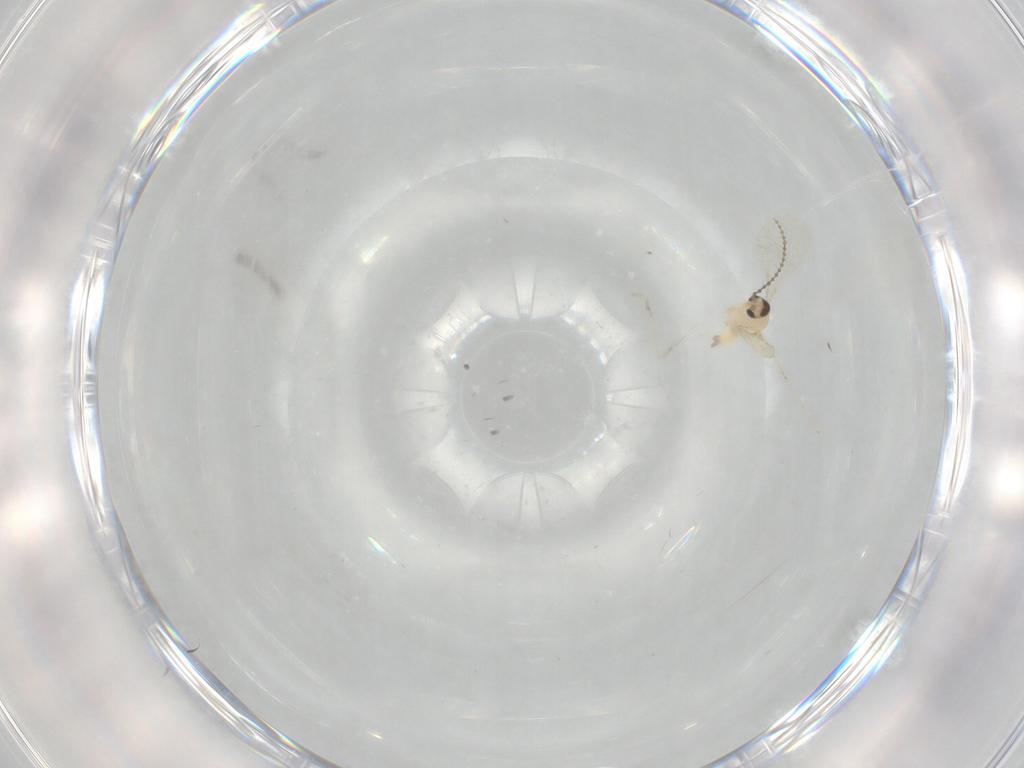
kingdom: Animalia
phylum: Arthropoda
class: Insecta
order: Diptera
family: Cecidomyiidae
